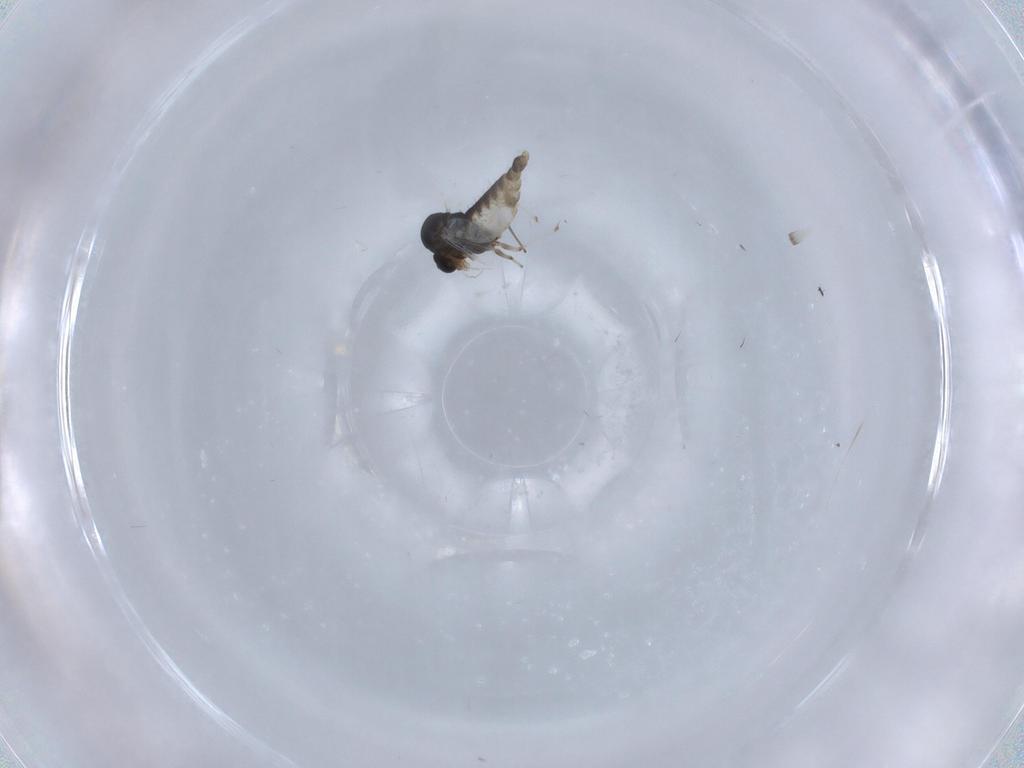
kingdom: Animalia
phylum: Arthropoda
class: Insecta
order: Diptera
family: Chironomidae
